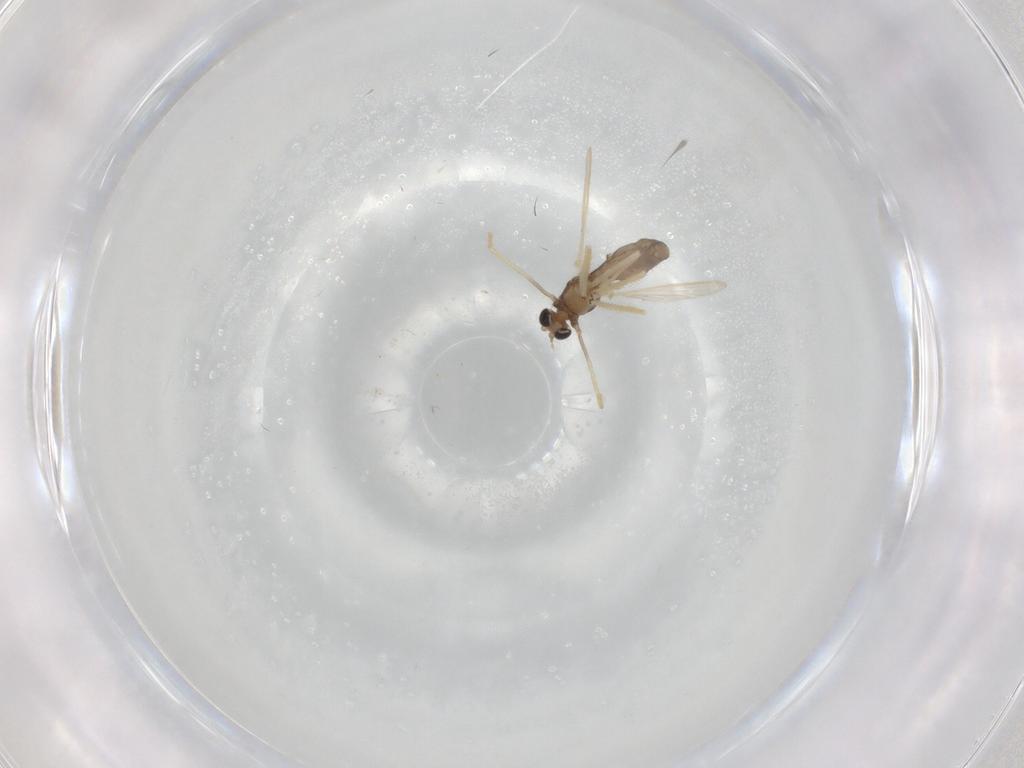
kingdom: Animalia
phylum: Arthropoda
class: Insecta
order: Diptera
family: Chironomidae
